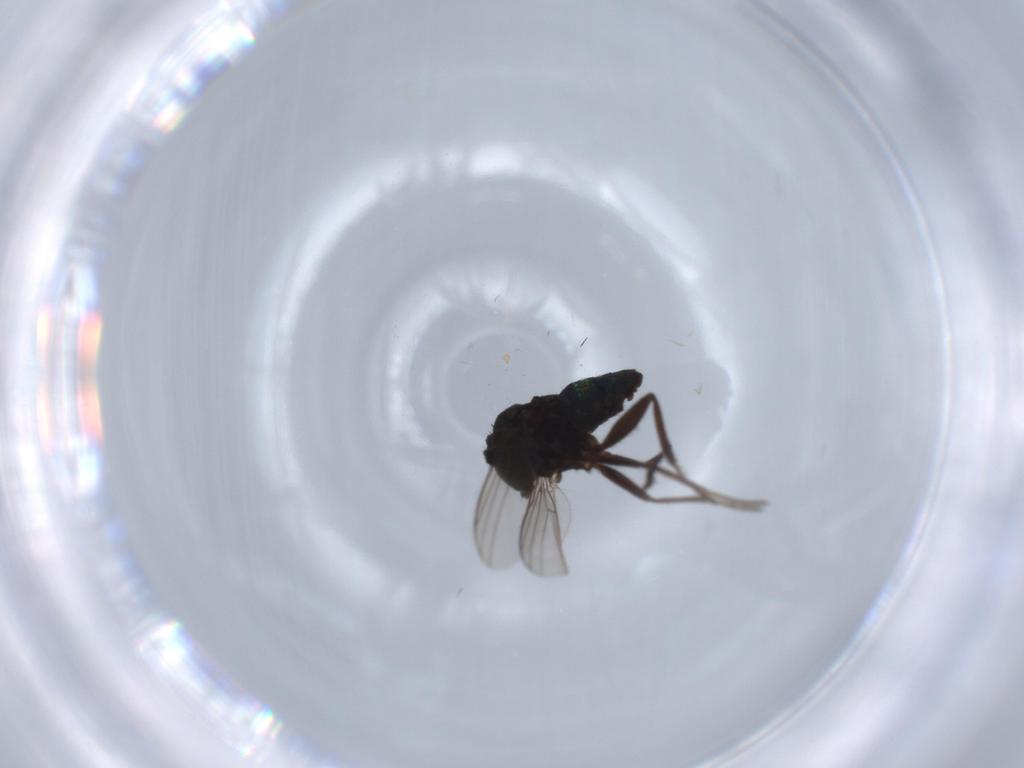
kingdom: Animalia
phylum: Arthropoda
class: Insecta
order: Diptera
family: Dolichopodidae
